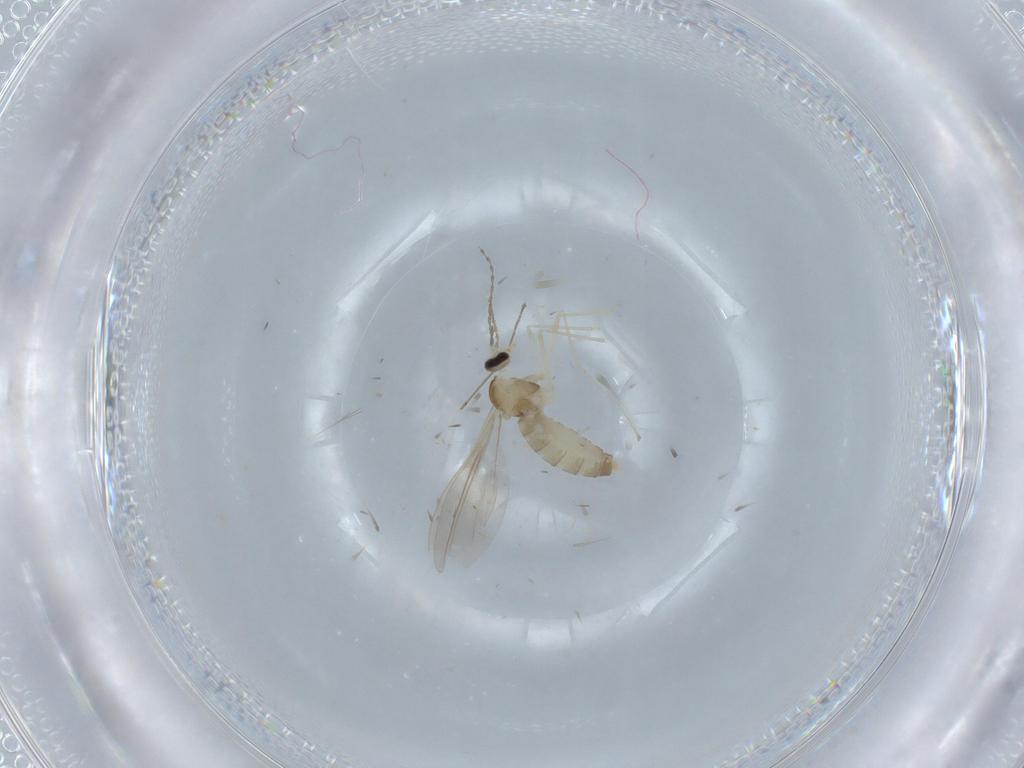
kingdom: Animalia
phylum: Arthropoda
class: Insecta
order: Diptera
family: Cecidomyiidae
